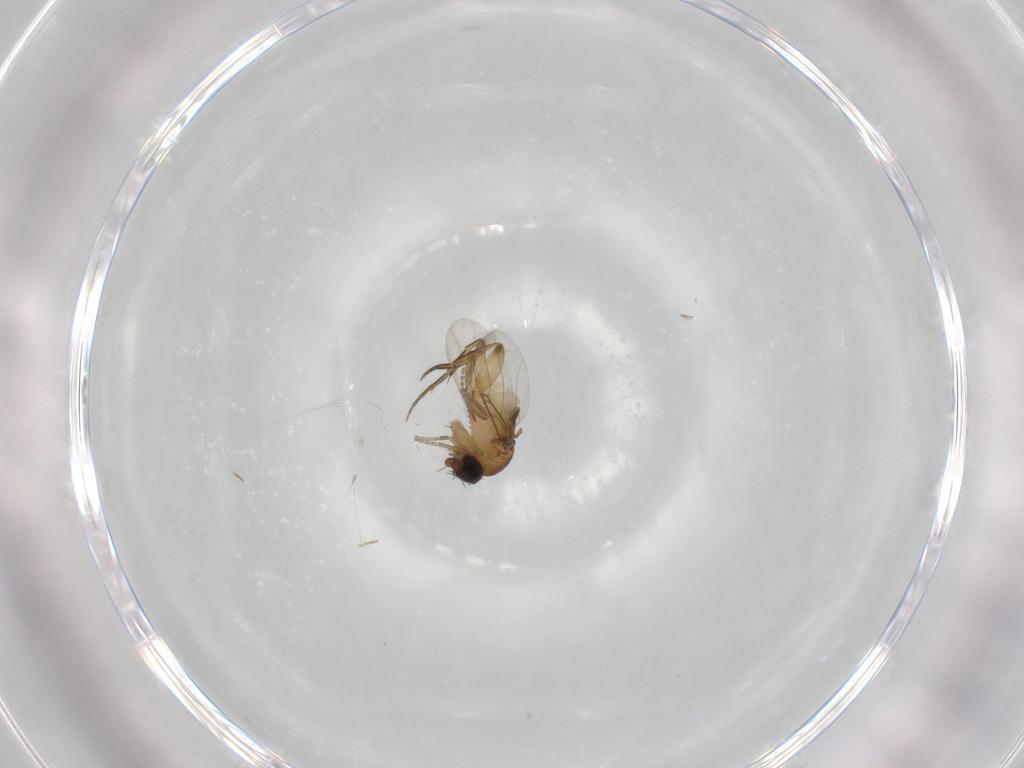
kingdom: Animalia
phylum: Arthropoda
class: Insecta
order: Diptera
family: Phoridae
